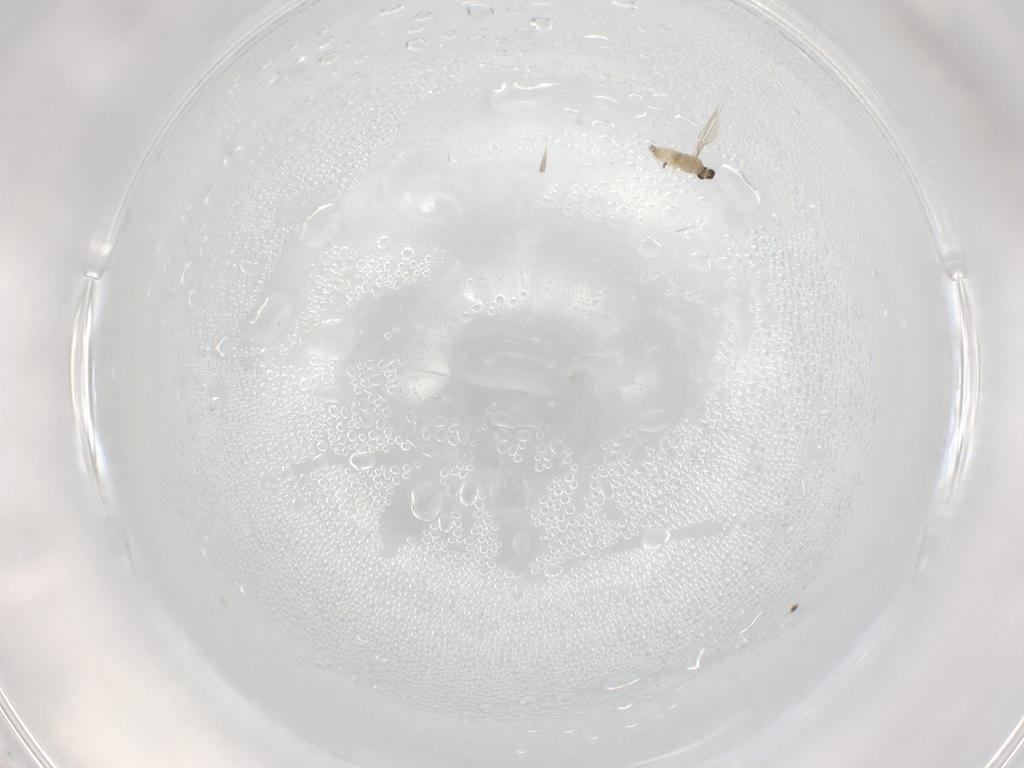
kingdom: Animalia
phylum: Arthropoda
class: Insecta
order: Diptera
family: Cecidomyiidae
